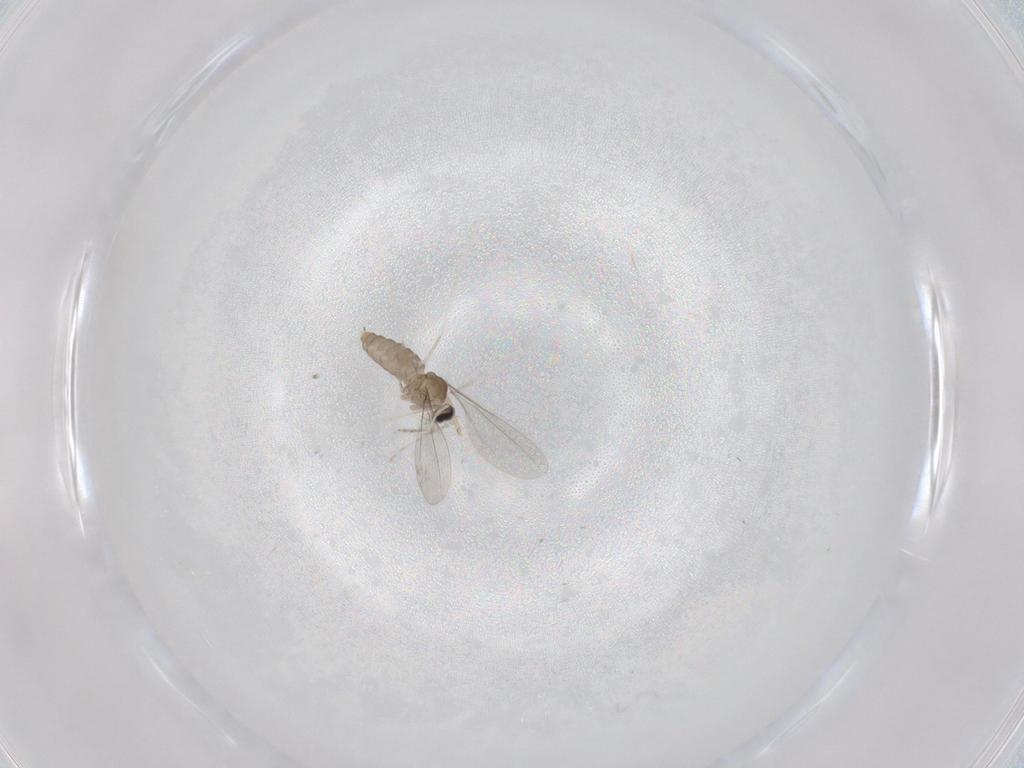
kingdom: Animalia
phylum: Arthropoda
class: Insecta
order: Diptera
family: Cecidomyiidae
